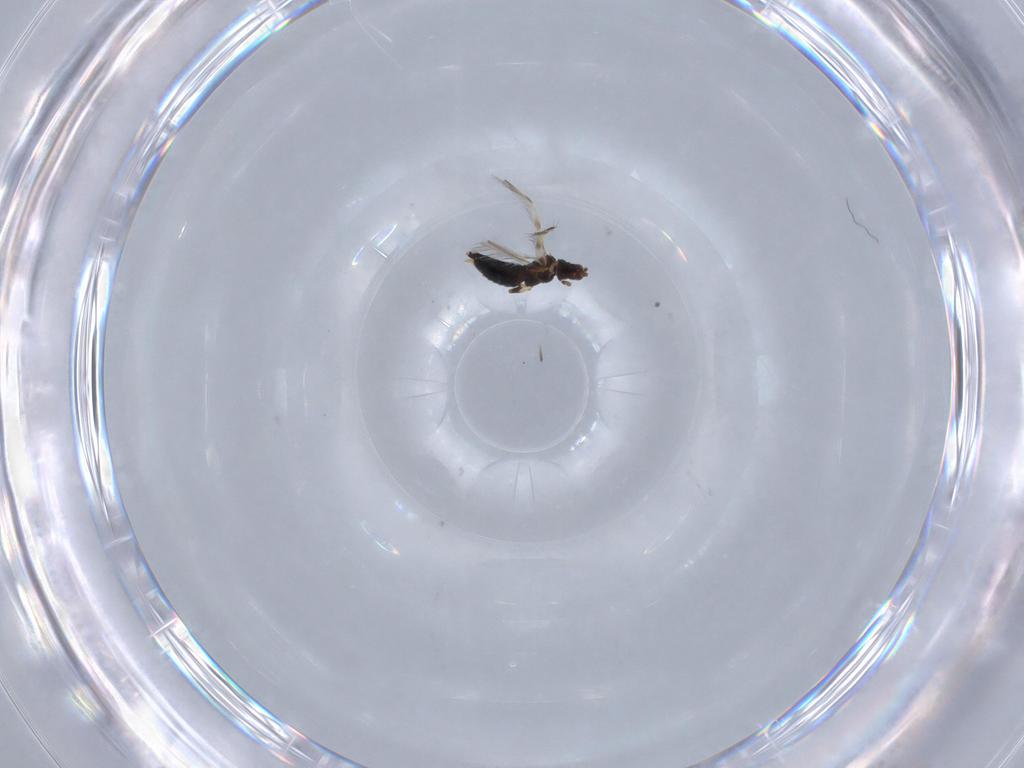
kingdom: Animalia
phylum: Arthropoda
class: Insecta
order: Thysanoptera
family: Thripidae
